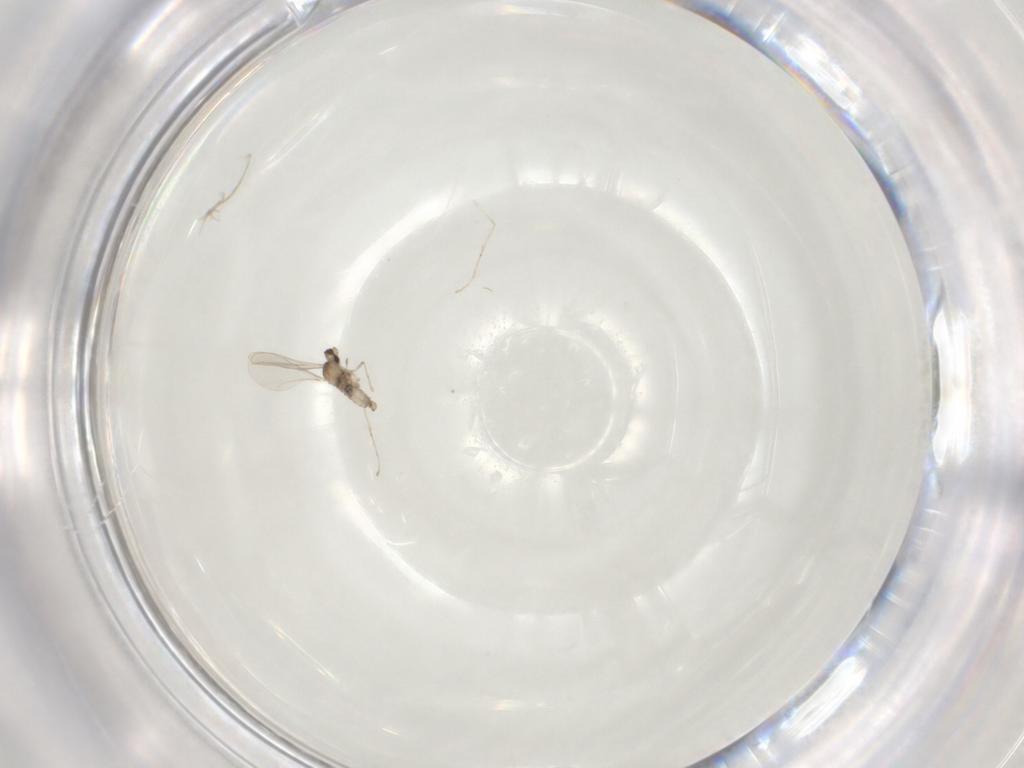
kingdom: Animalia
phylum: Arthropoda
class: Insecta
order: Diptera
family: Cecidomyiidae
